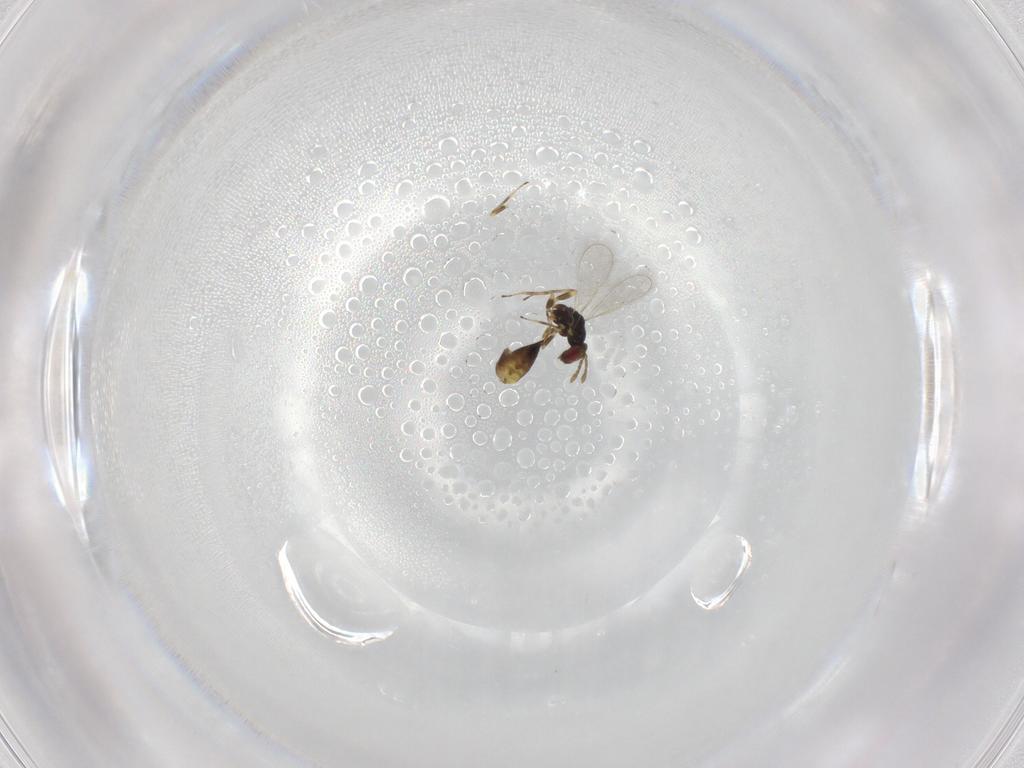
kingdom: Animalia
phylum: Arthropoda
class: Insecta
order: Hymenoptera
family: Eulophidae
